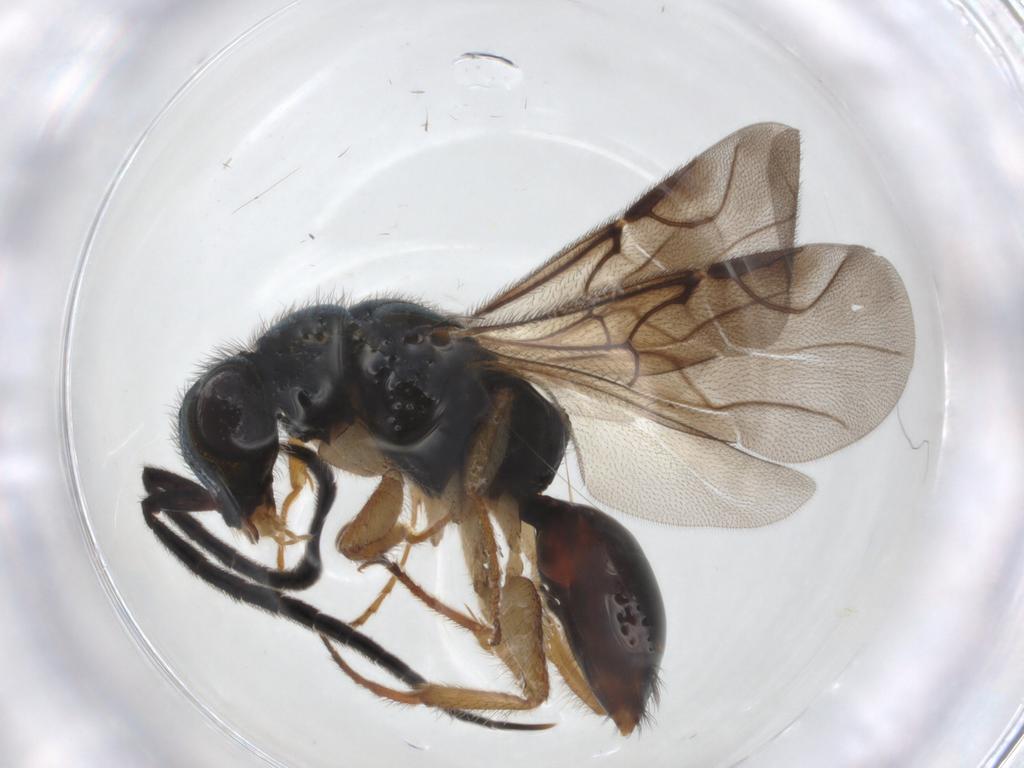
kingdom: Animalia
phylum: Arthropoda
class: Insecta
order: Hymenoptera
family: Chrysididae
